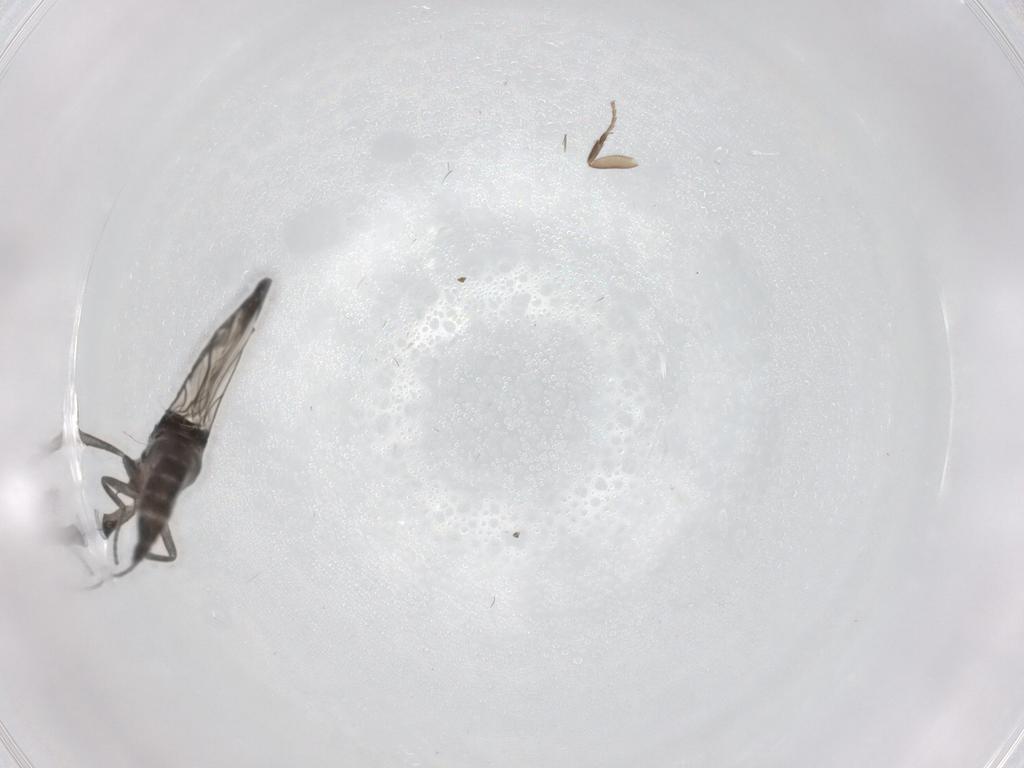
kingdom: Animalia
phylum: Arthropoda
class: Insecta
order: Diptera
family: Phoridae
